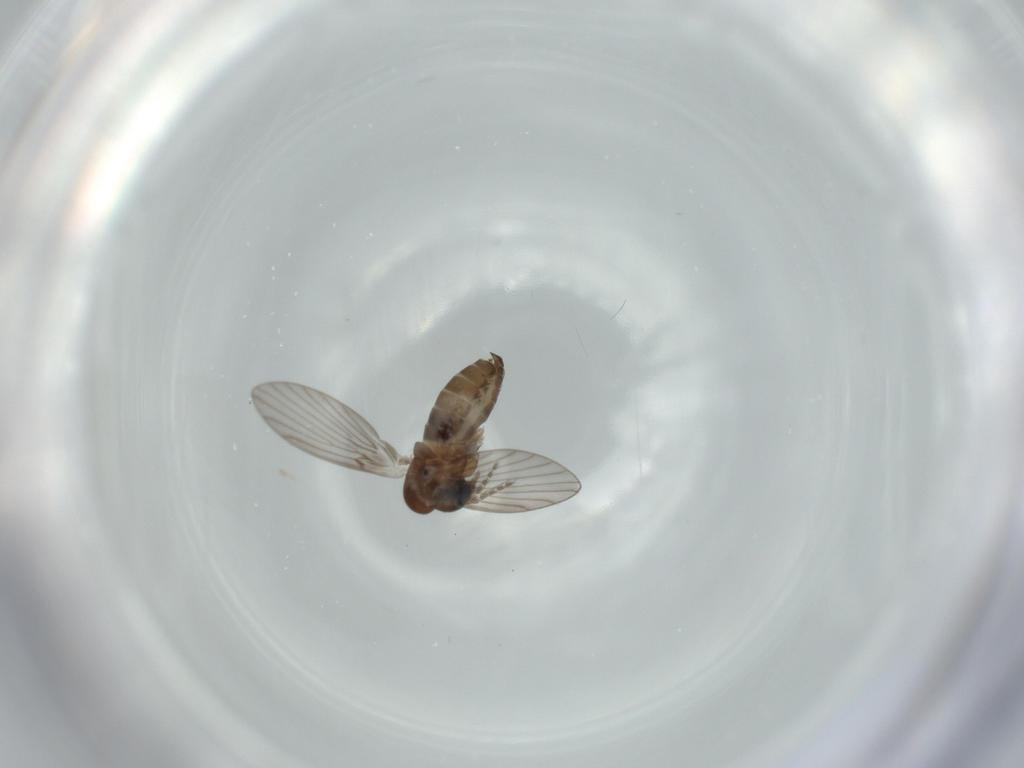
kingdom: Animalia
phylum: Arthropoda
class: Insecta
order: Diptera
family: Psychodidae
